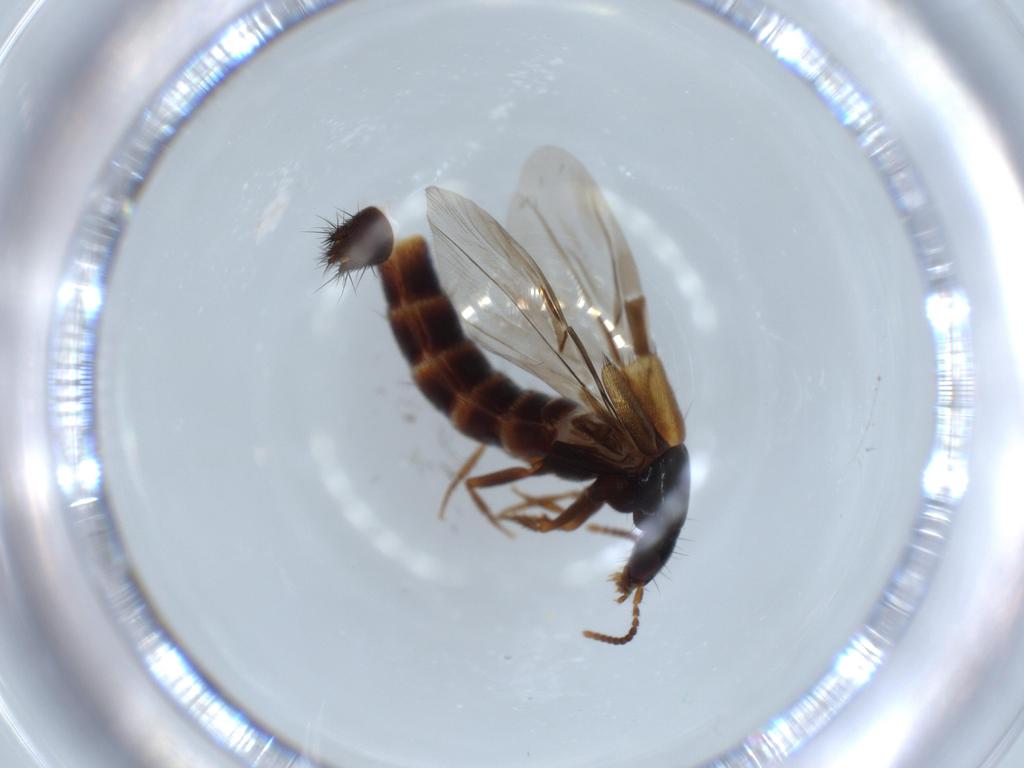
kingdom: Animalia
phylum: Arthropoda
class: Insecta
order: Coleoptera
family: Staphylinidae
